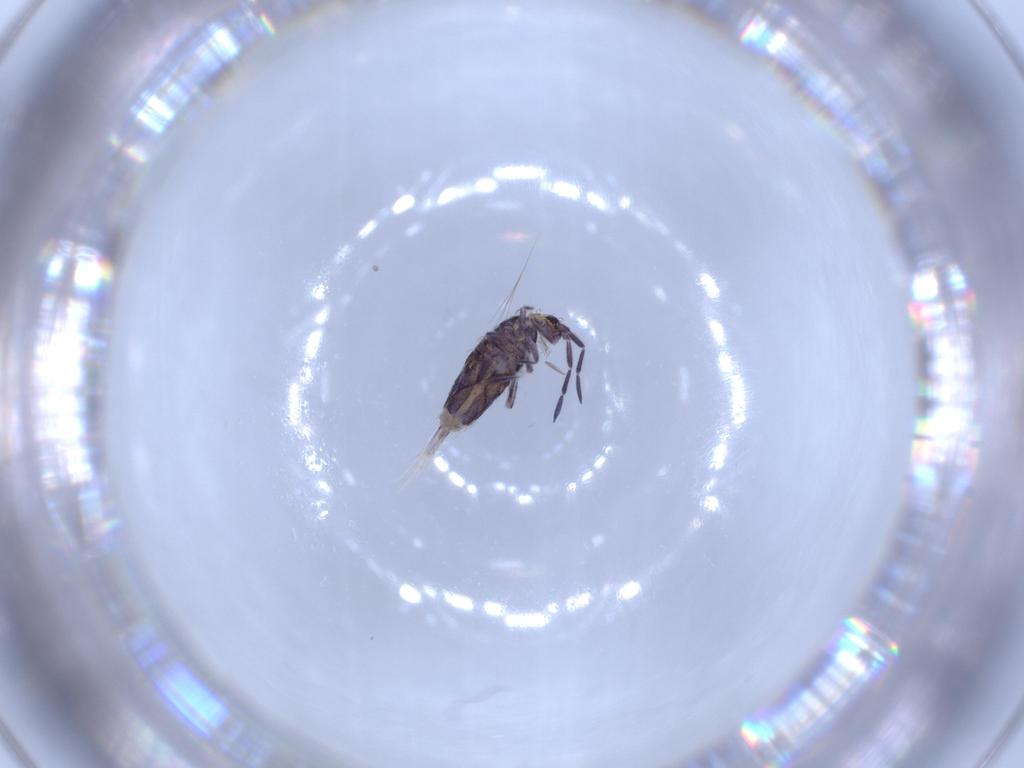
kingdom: Animalia
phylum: Arthropoda
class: Collembola
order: Entomobryomorpha
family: Entomobryidae
